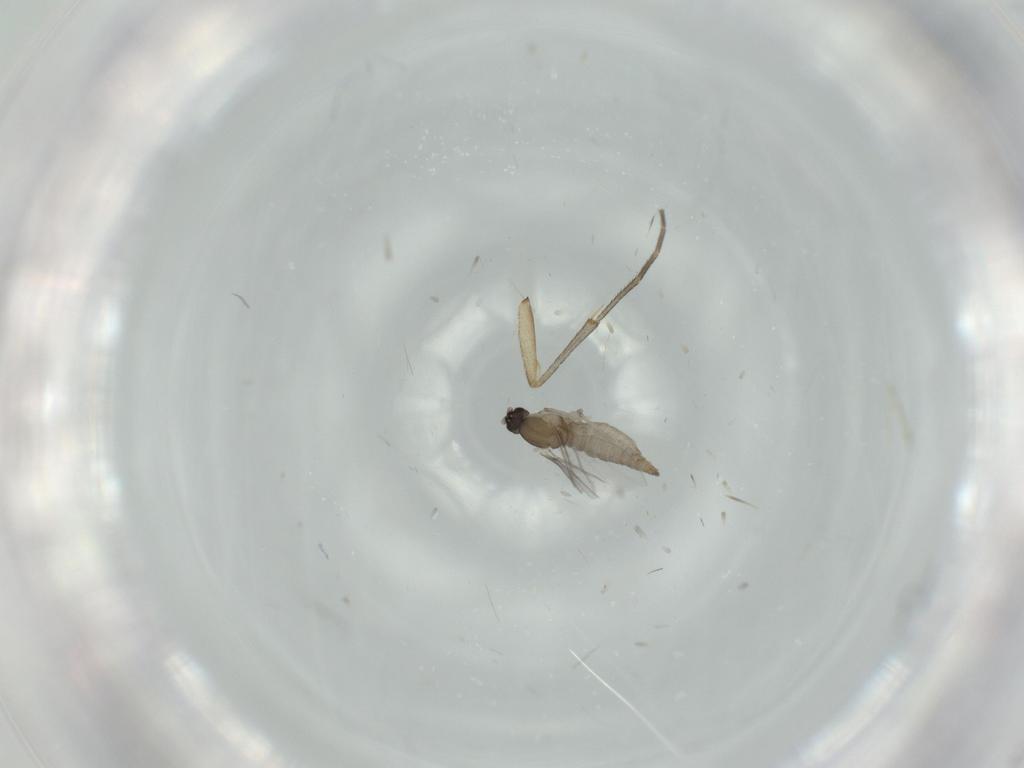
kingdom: Animalia
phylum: Arthropoda
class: Insecta
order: Diptera
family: Cecidomyiidae
